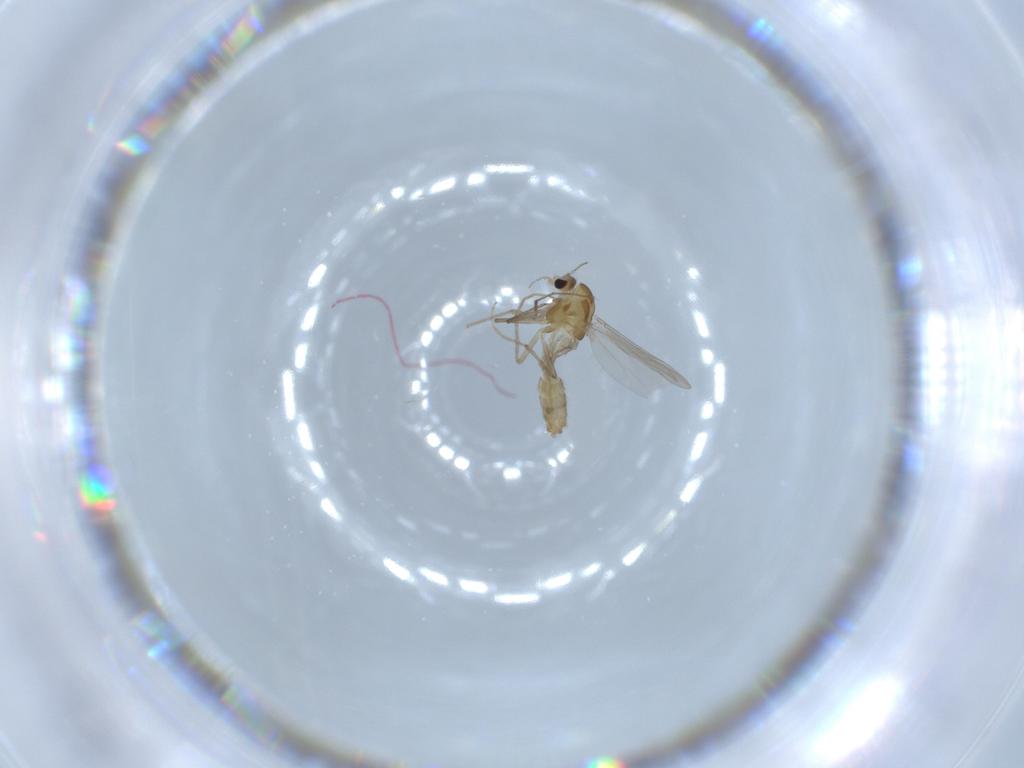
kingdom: Animalia
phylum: Arthropoda
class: Insecta
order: Diptera
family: Chironomidae
